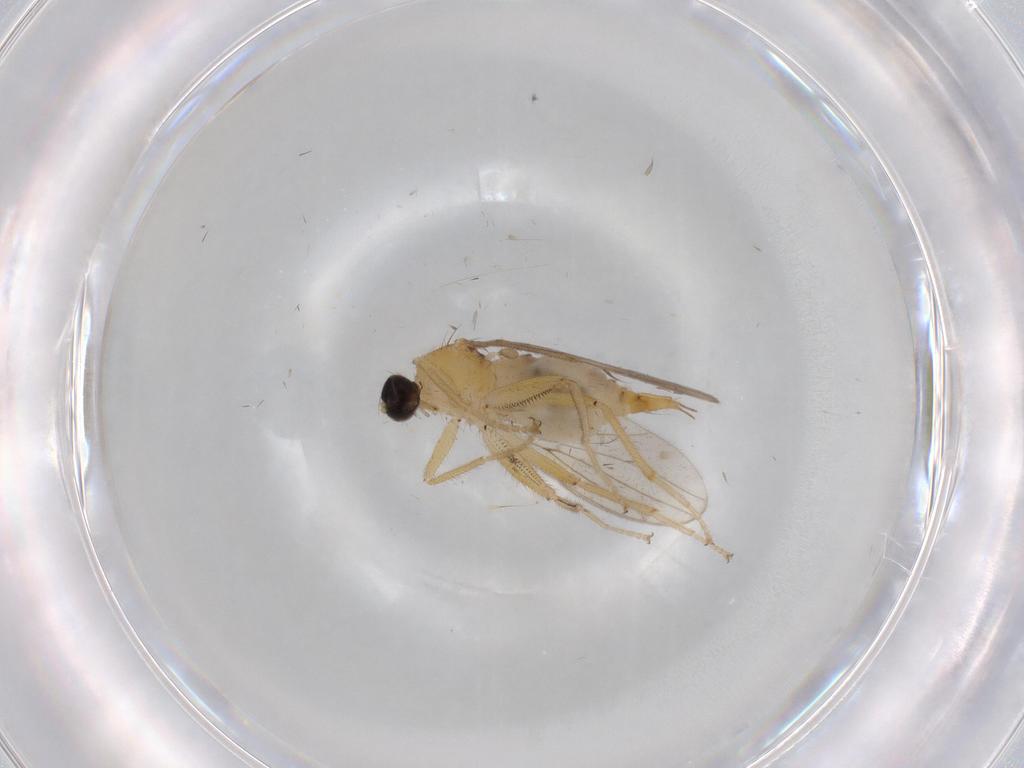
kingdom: Animalia
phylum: Arthropoda
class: Insecta
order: Diptera
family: Hybotidae
